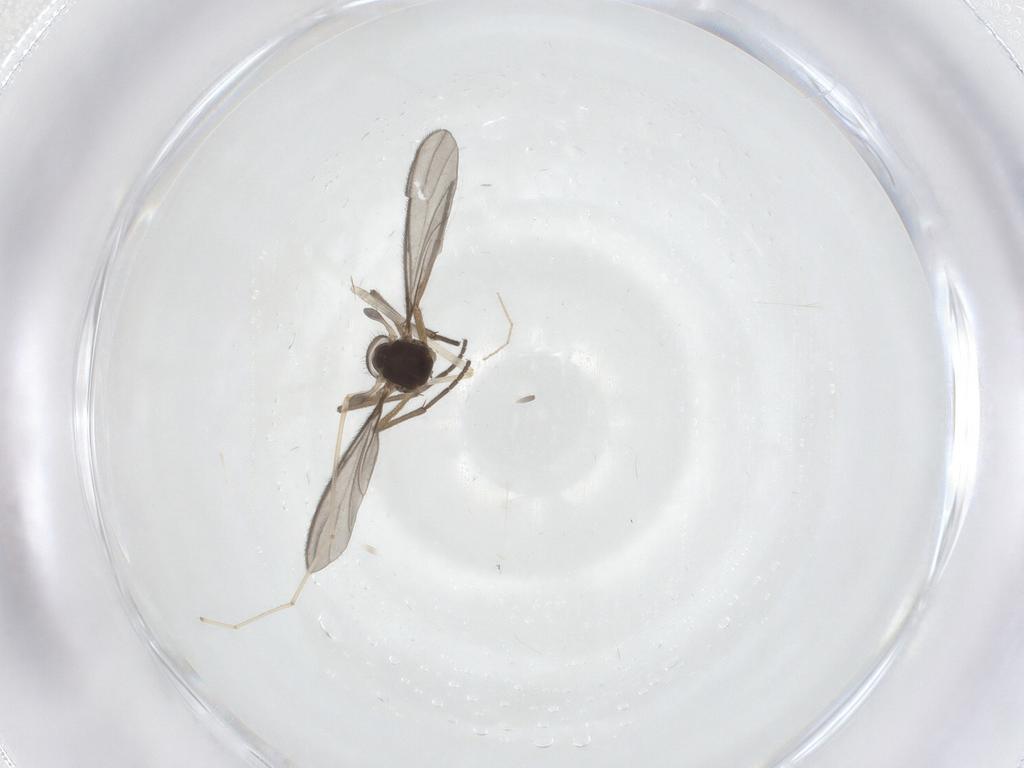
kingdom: Animalia
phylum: Arthropoda
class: Insecta
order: Diptera
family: Sciaridae
